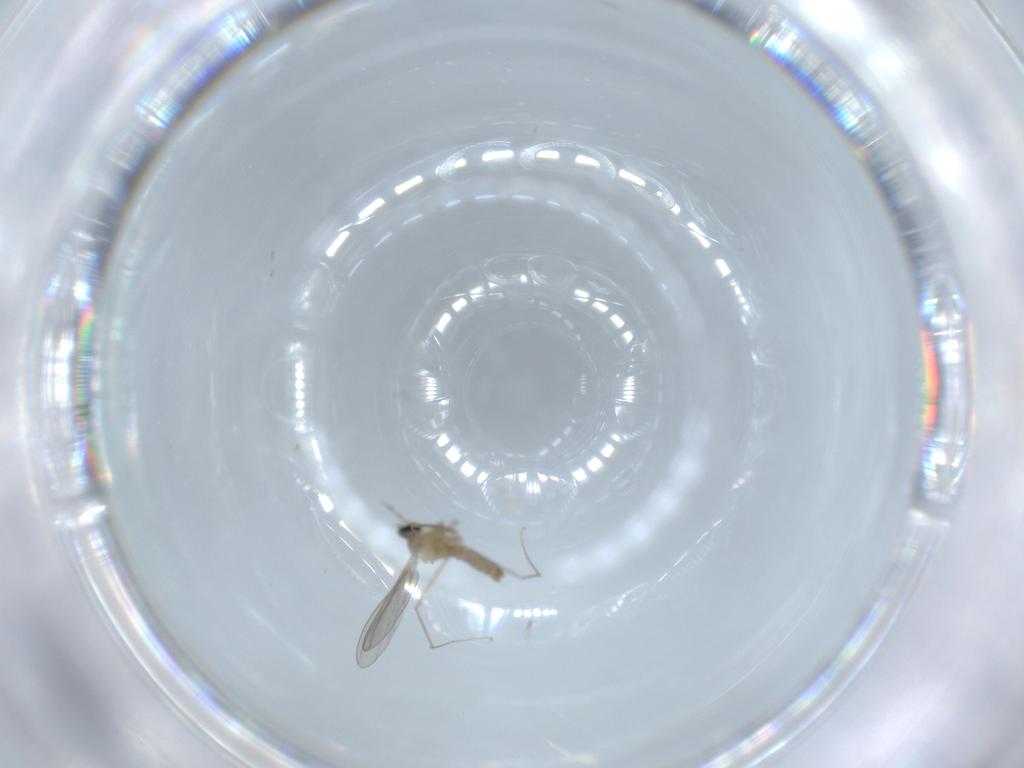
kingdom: Animalia
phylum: Arthropoda
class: Insecta
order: Diptera
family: Cecidomyiidae
